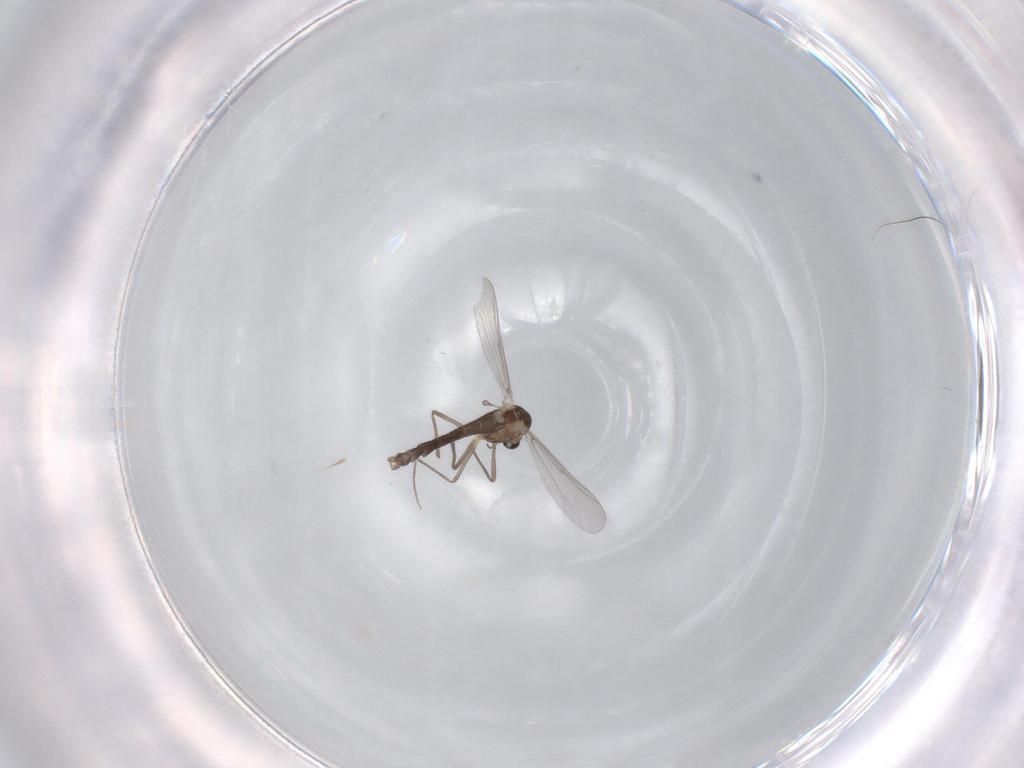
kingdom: Animalia
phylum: Arthropoda
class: Insecta
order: Diptera
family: Chironomidae
